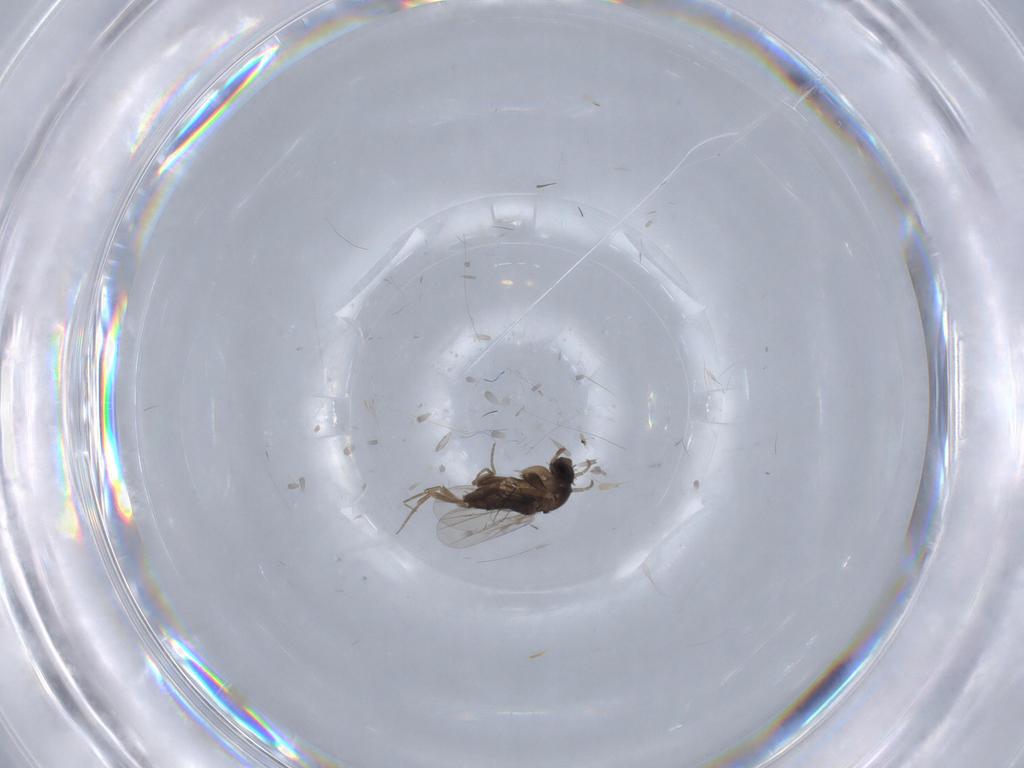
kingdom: Animalia
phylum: Arthropoda
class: Insecta
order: Diptera
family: Phoridae
